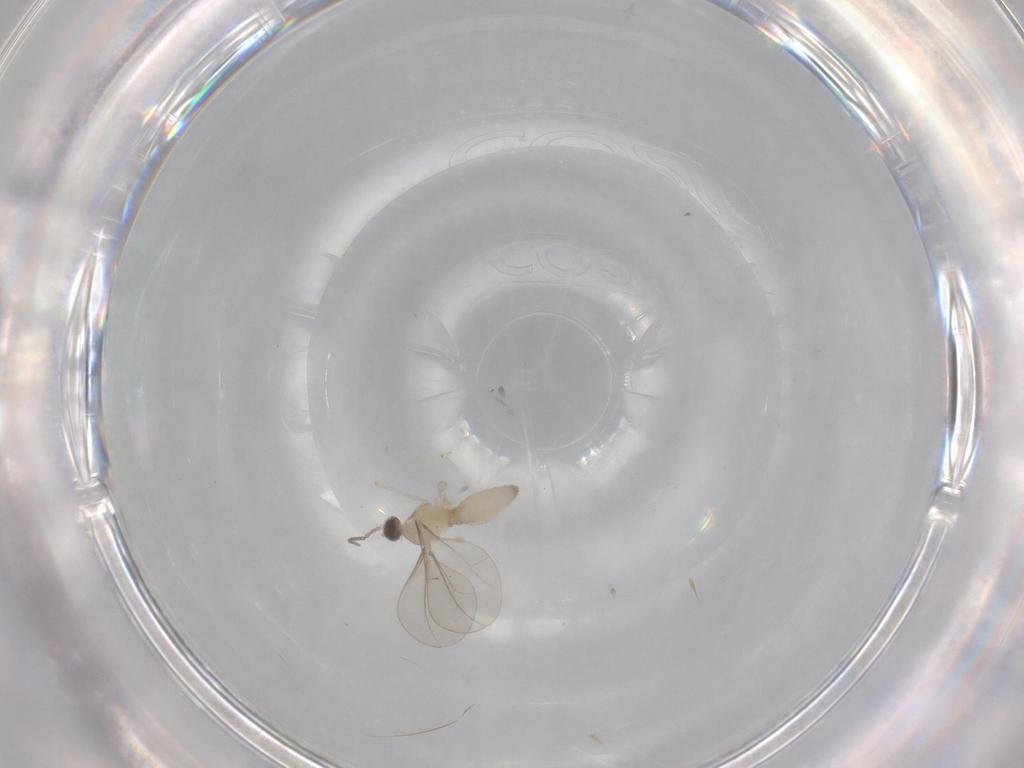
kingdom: Animalia
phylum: Arthropoda
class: Insecta
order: Diptera
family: Cecidomyiidae
